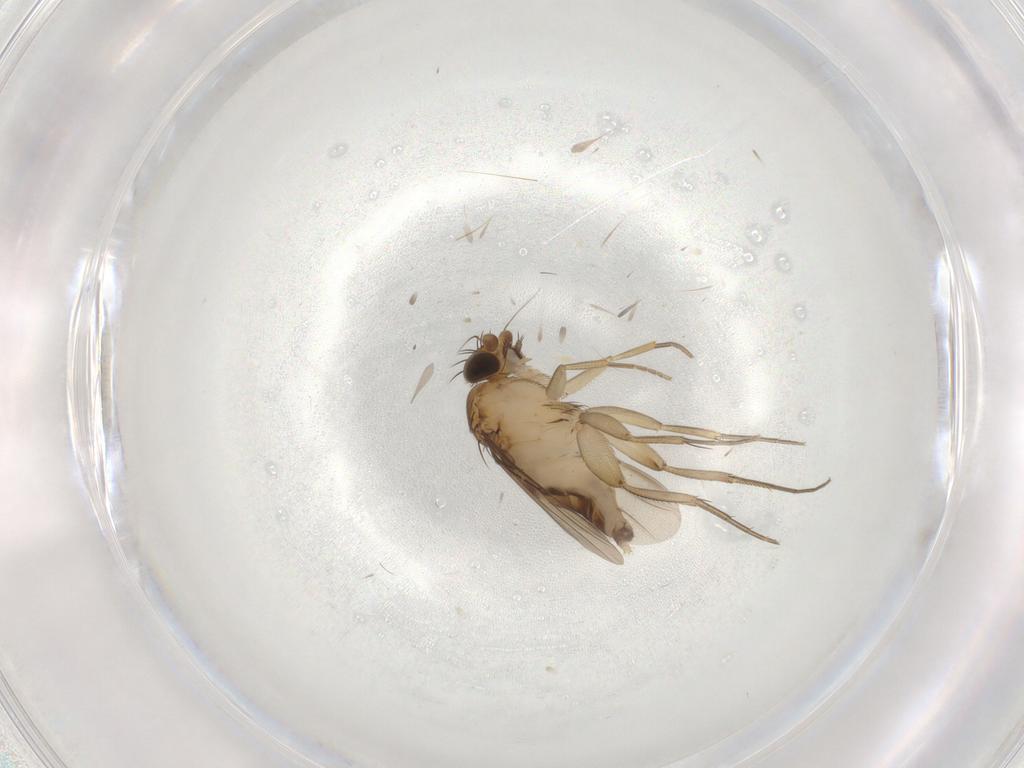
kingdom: Animalia
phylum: Arthropoda
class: Insecta
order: Diptera
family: Phoridae
